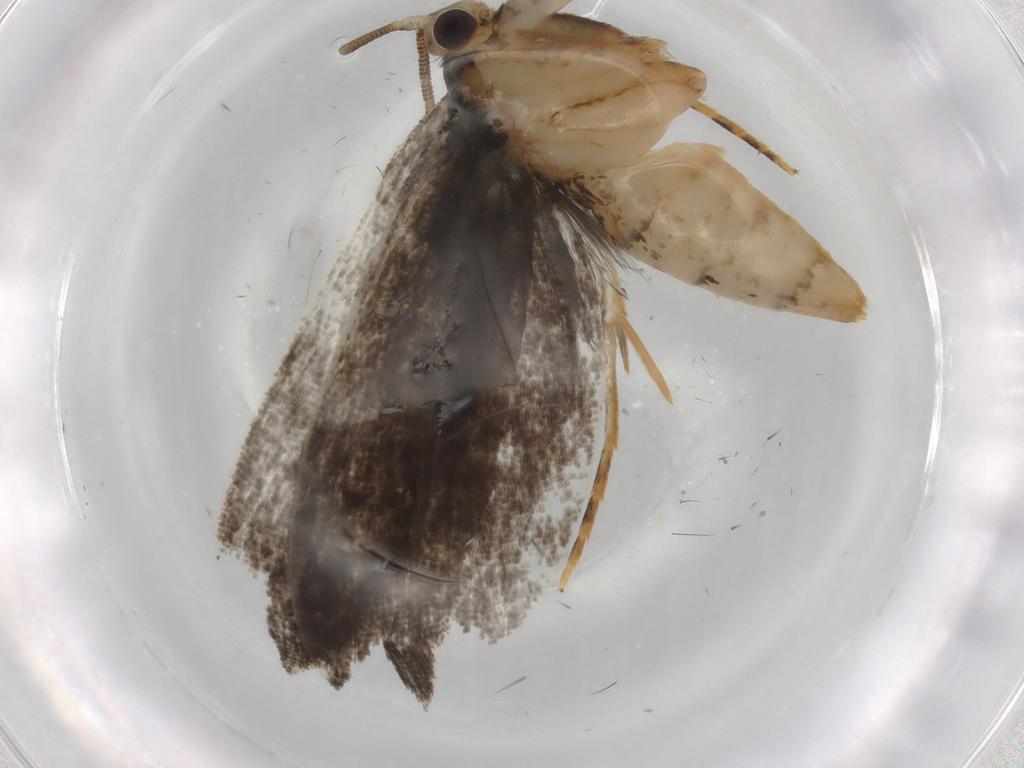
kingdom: Animalia
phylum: Arthropoda
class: Insecta
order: Lepidoptera
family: Tineidae
